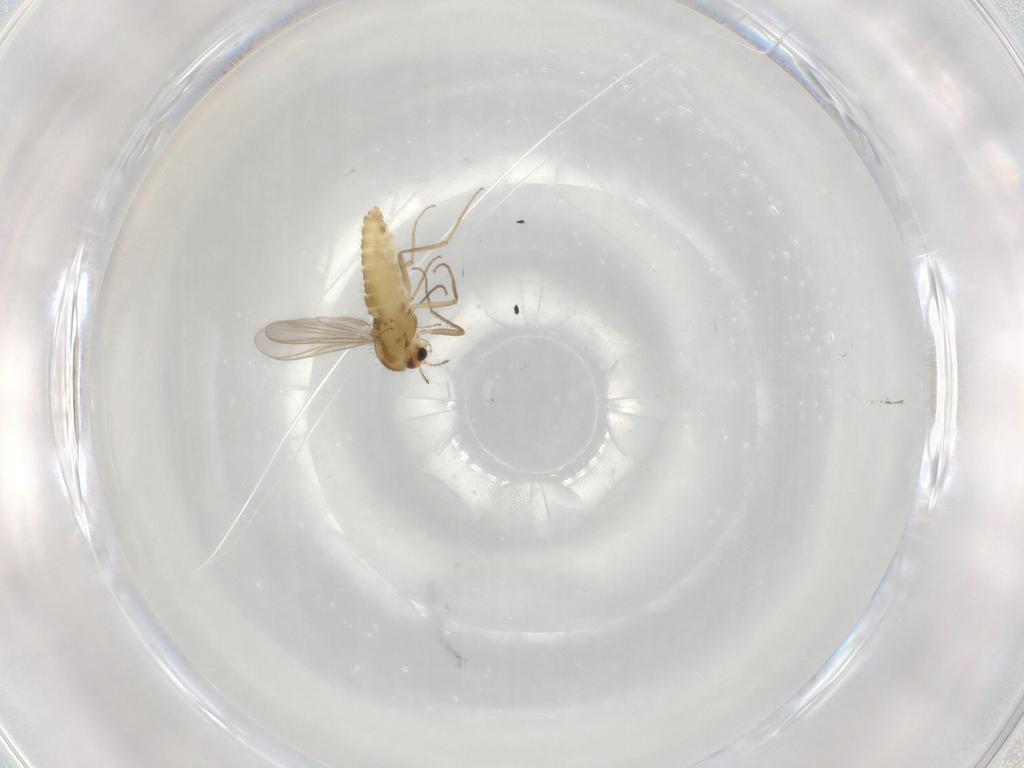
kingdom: Animalia
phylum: Arthropoda
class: Insecta
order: Diptera
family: Chironomidae
